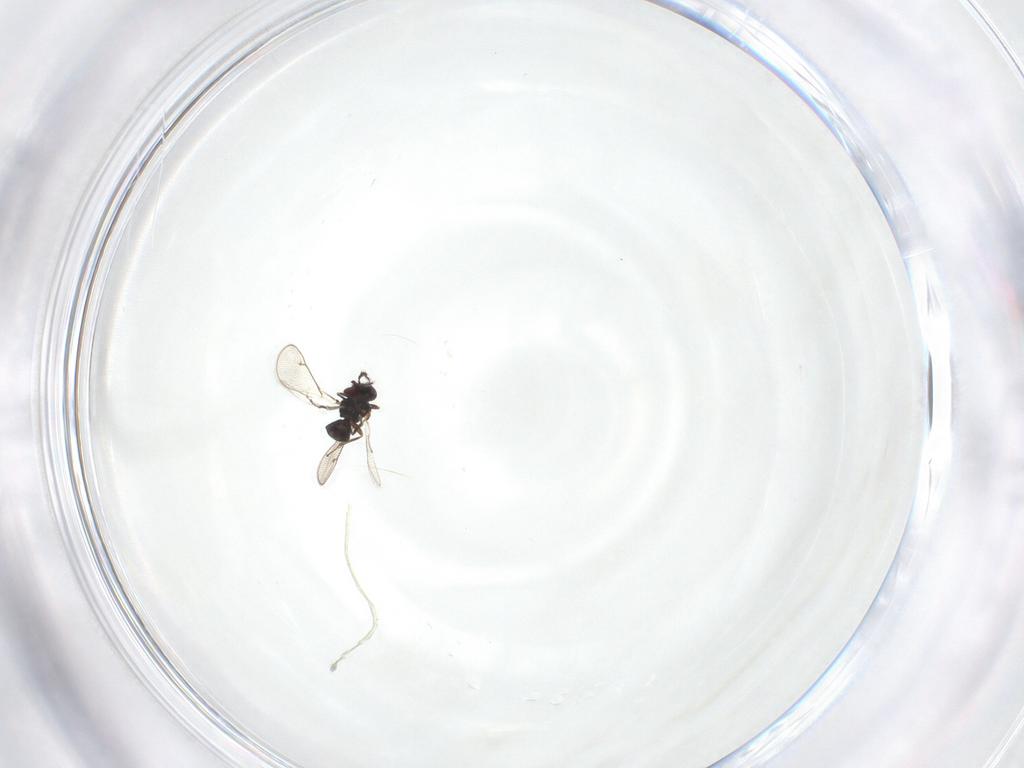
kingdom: Animalia
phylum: Arthropoda
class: Insecta
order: Hymenoptera
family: Eulophidae
